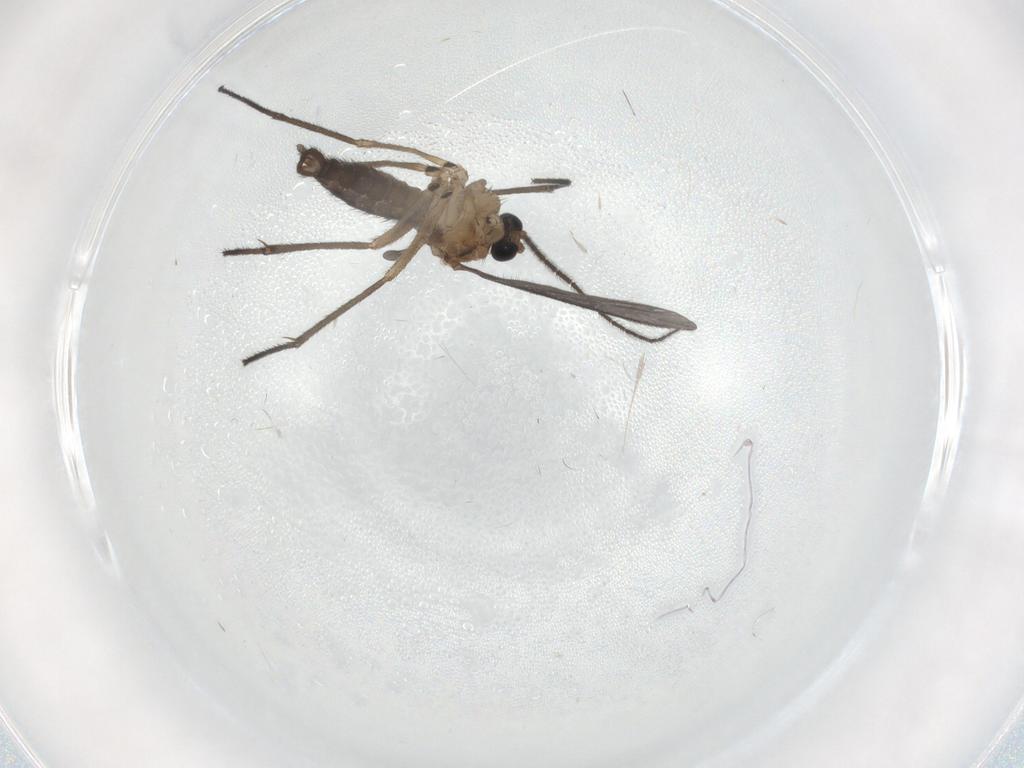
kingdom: Animalia
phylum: Arthropoda
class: Insecta
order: Diptera
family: Sciaridae
